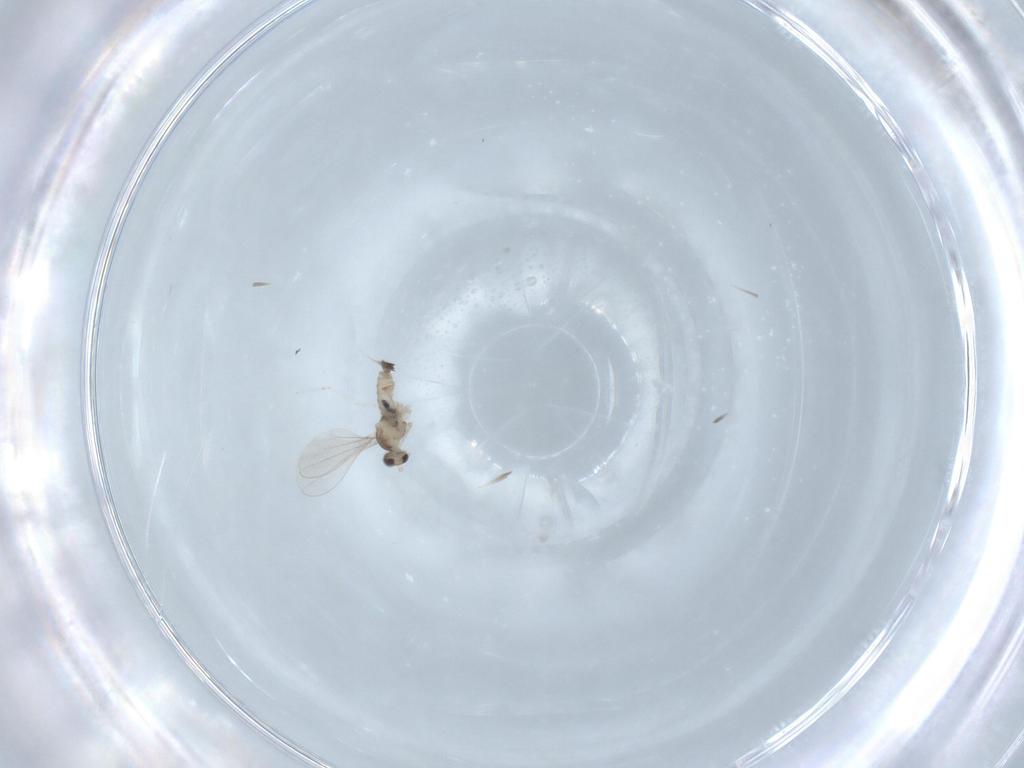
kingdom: Animalia
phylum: Arthropoda
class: Insecta
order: Diptera
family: Cecidomyiidae
